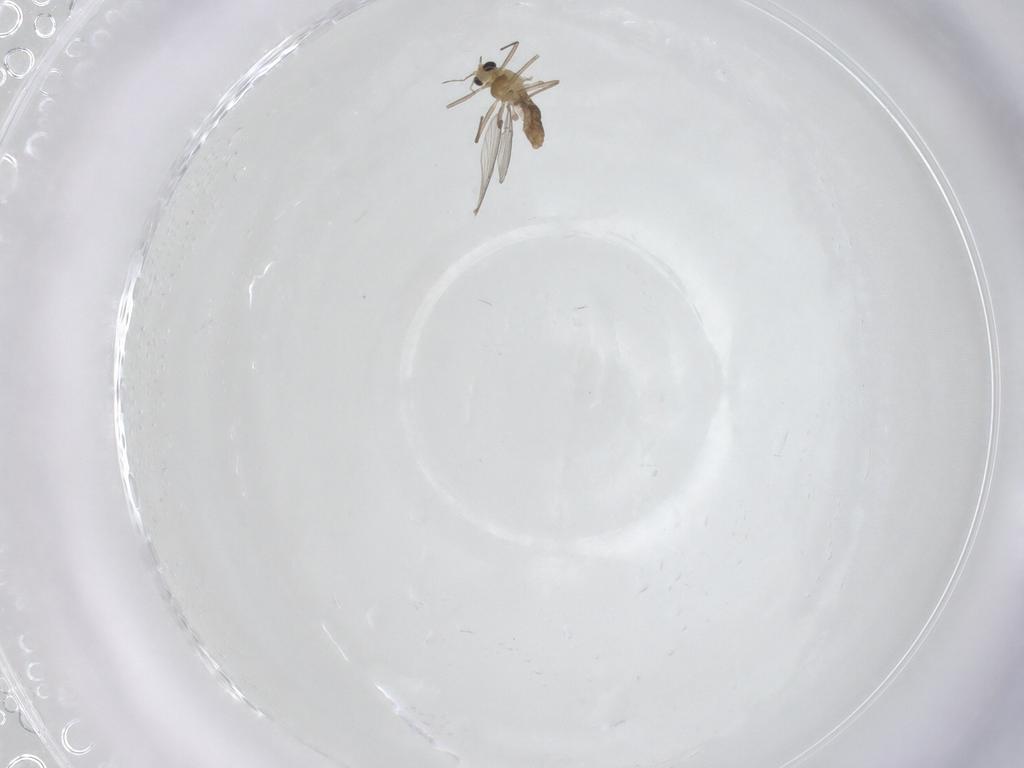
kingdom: Animalia
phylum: Arthropoda
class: Insecta
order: Diptera
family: Chironomidae
